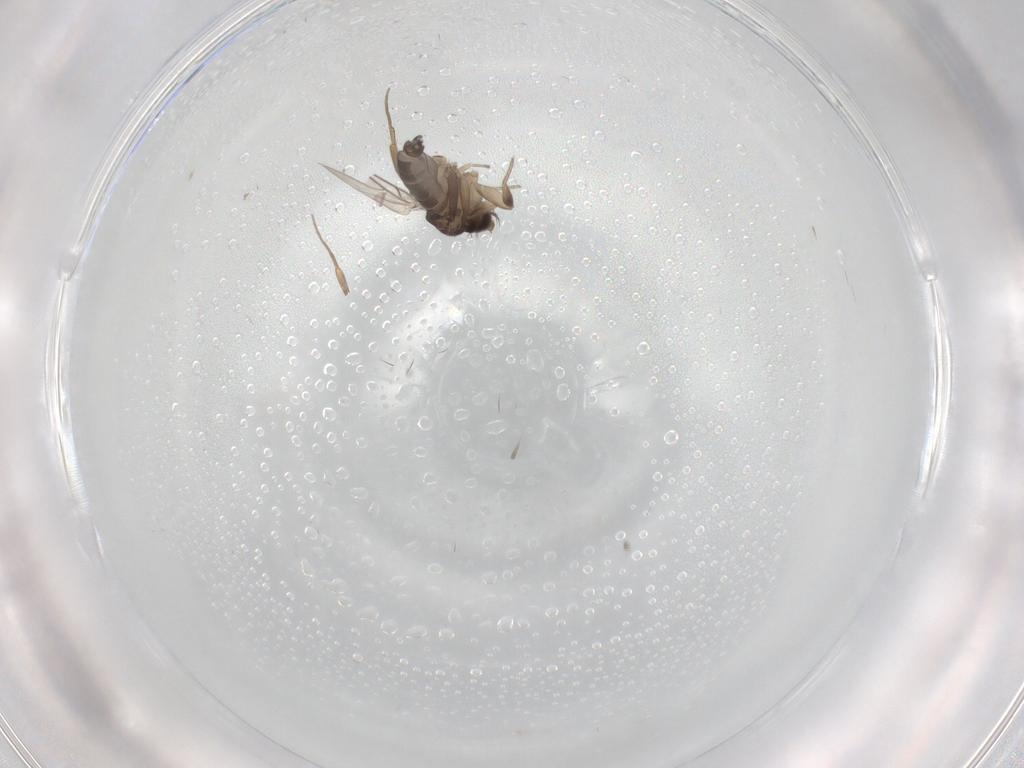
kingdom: Animalia
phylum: Arthropoda
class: Insecta
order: Diptera
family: Phoridae
